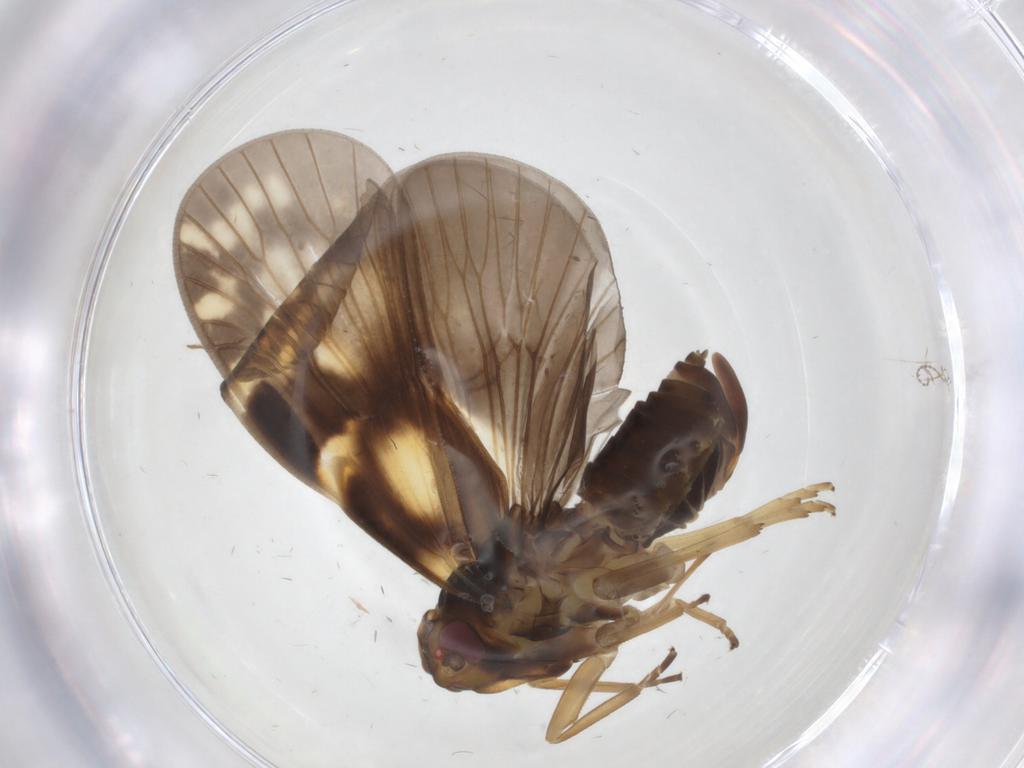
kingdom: Animalia
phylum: Arthropoda
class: Insecta
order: Hemiptera
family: Cixiidae
